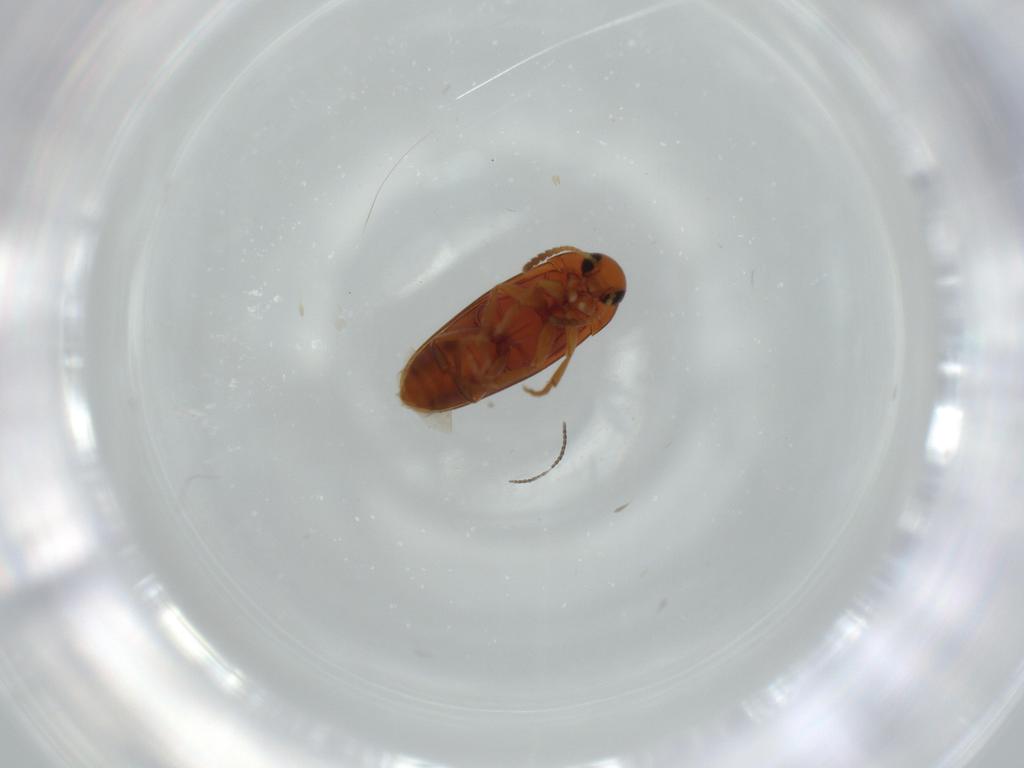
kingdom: Animalia
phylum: Arthropoda
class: Insecta
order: Coleoptera
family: Scraptiidae
